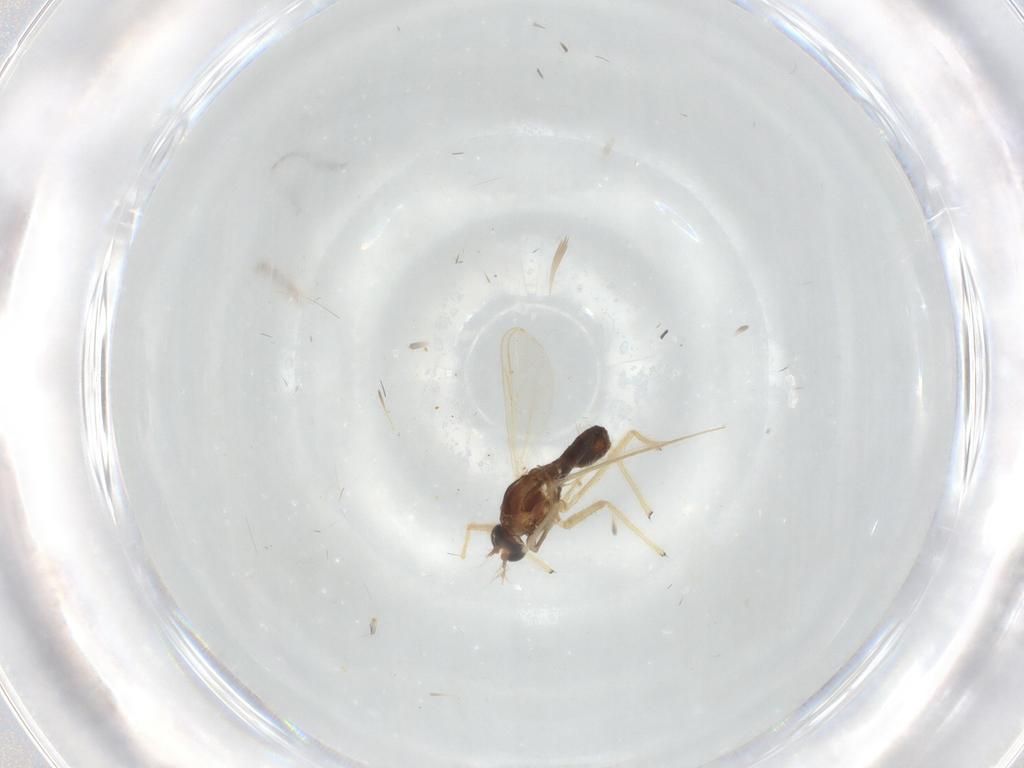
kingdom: Animalia
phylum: Arthropoda
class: Insecta
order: Diptera
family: Chironomidae
